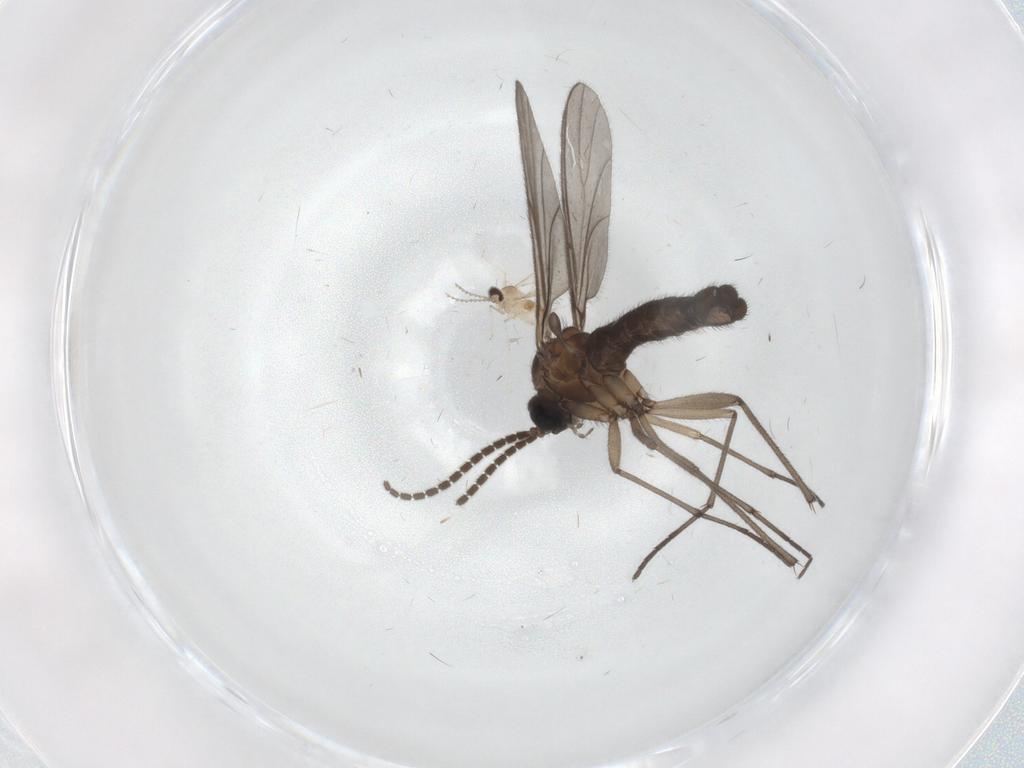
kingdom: Animalia
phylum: Arthropoda
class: Insecta
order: Diptera
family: Sciaridae
